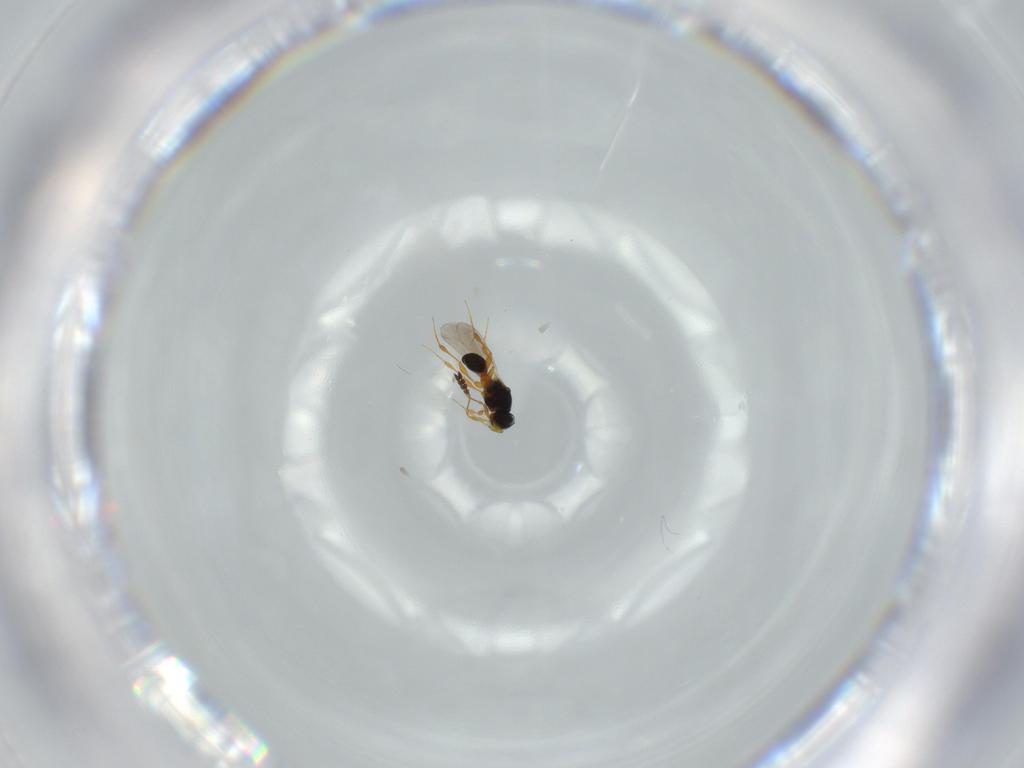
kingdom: Animalia
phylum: Arthropoda
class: Insecta
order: Hymenoptera
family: Platygastridae
